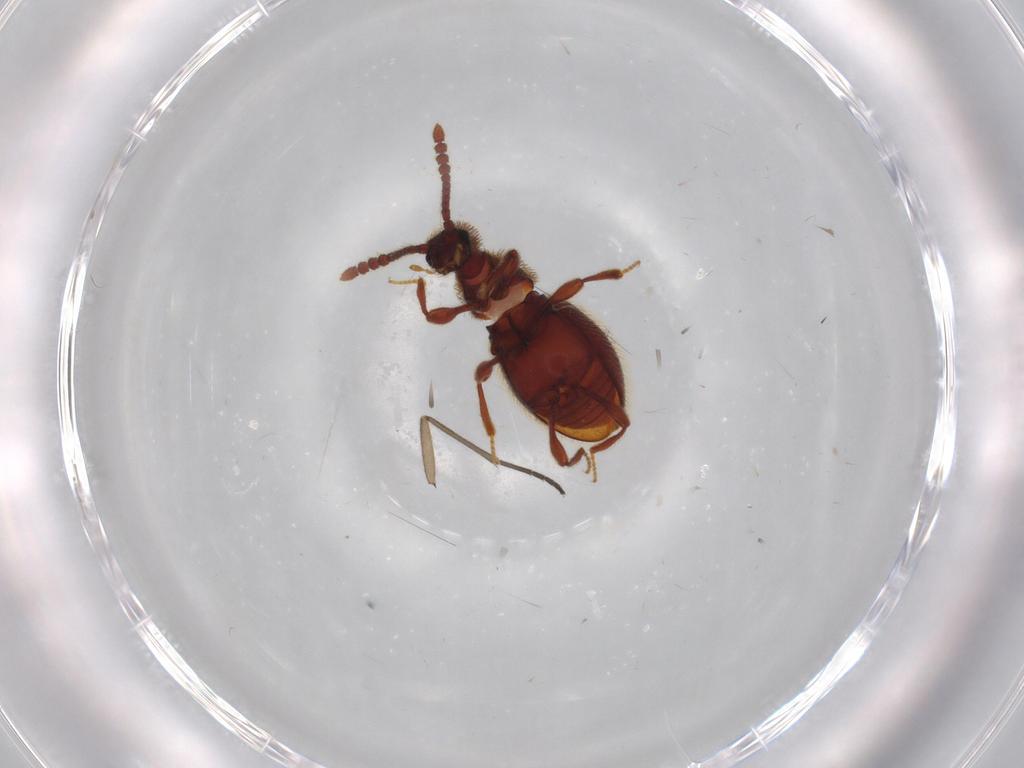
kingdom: Animalia
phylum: Arthropoda
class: Insecta
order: Coleoptera
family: Staphylinidae
